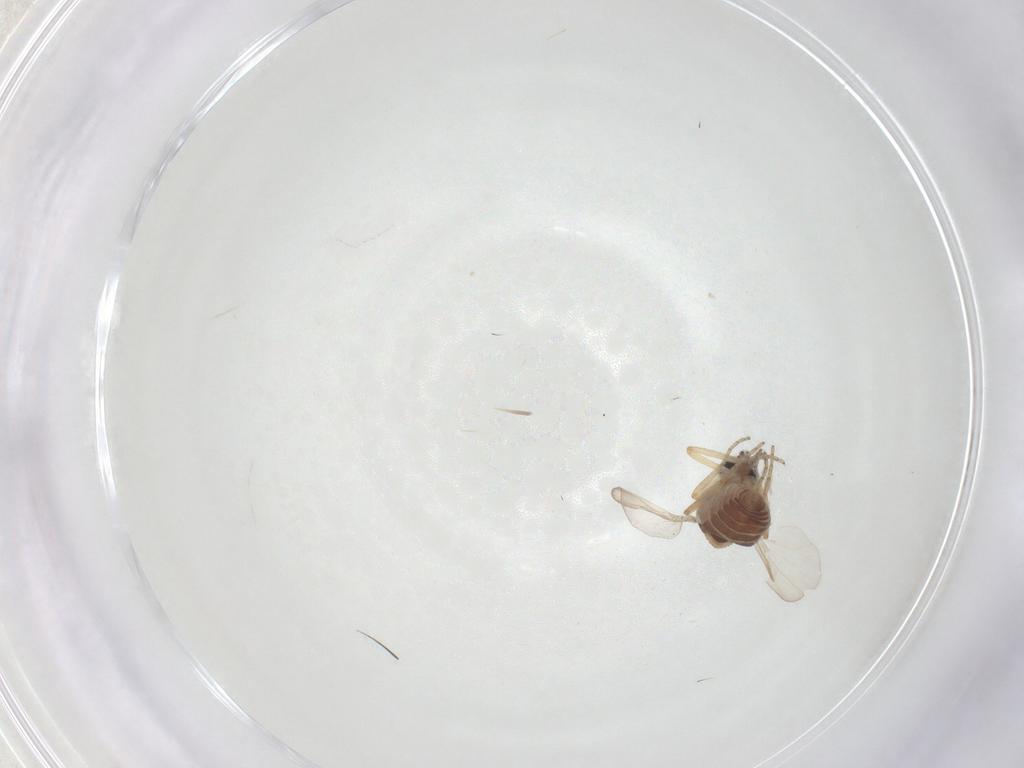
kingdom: Animalia
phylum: Arthropoda
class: Insecta
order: Diptera
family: Ceratopogonidae
